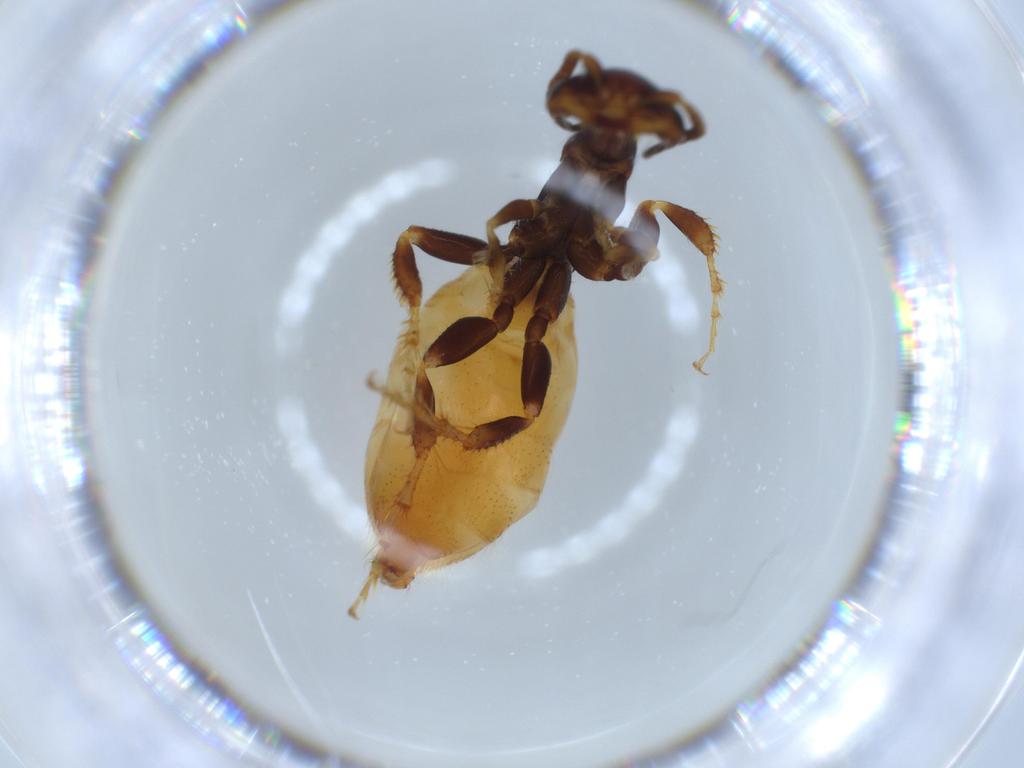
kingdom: Animalia
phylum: Arthropoda
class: Insecta
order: Hymenoptera
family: Thynnidae
